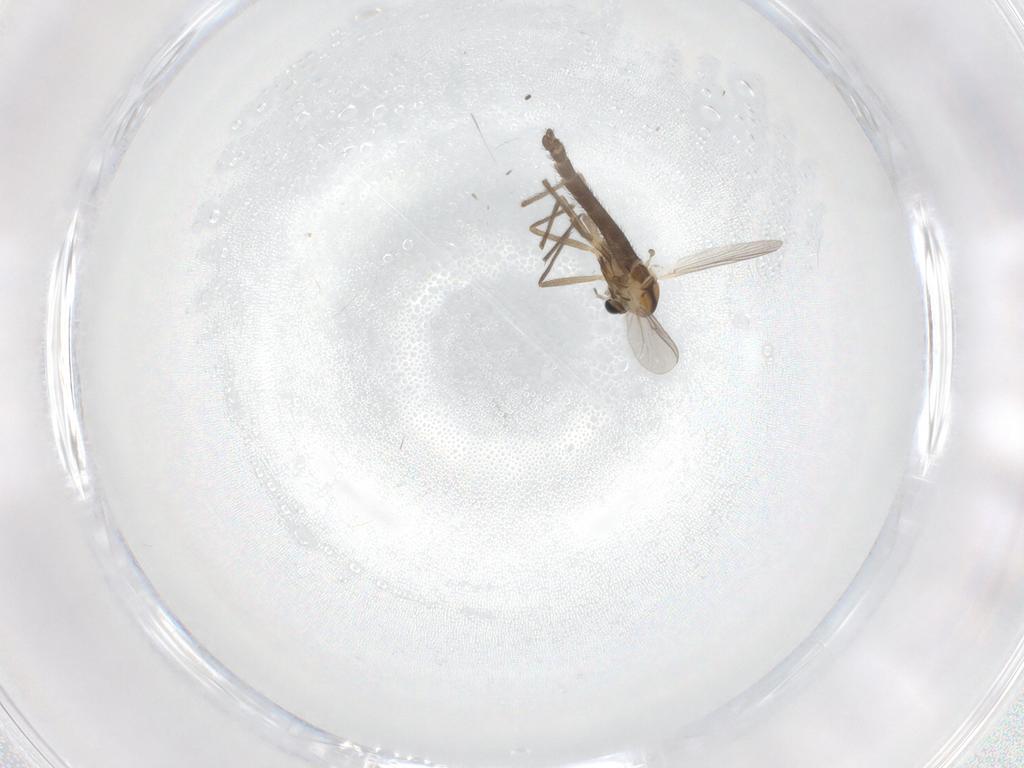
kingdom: Animalia
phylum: Arthropoda
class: Insecta
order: Diptera
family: Chironomidae
